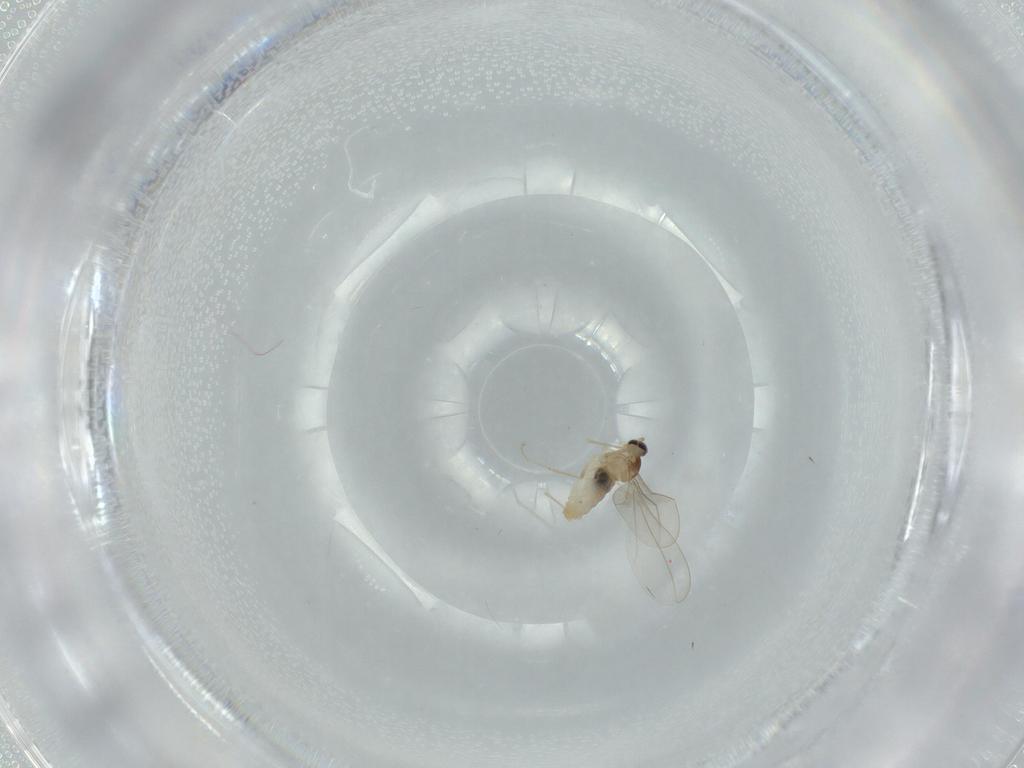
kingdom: Animalia
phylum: Arthropoda
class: Insecta
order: Diptera
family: Cecidomyiidae
